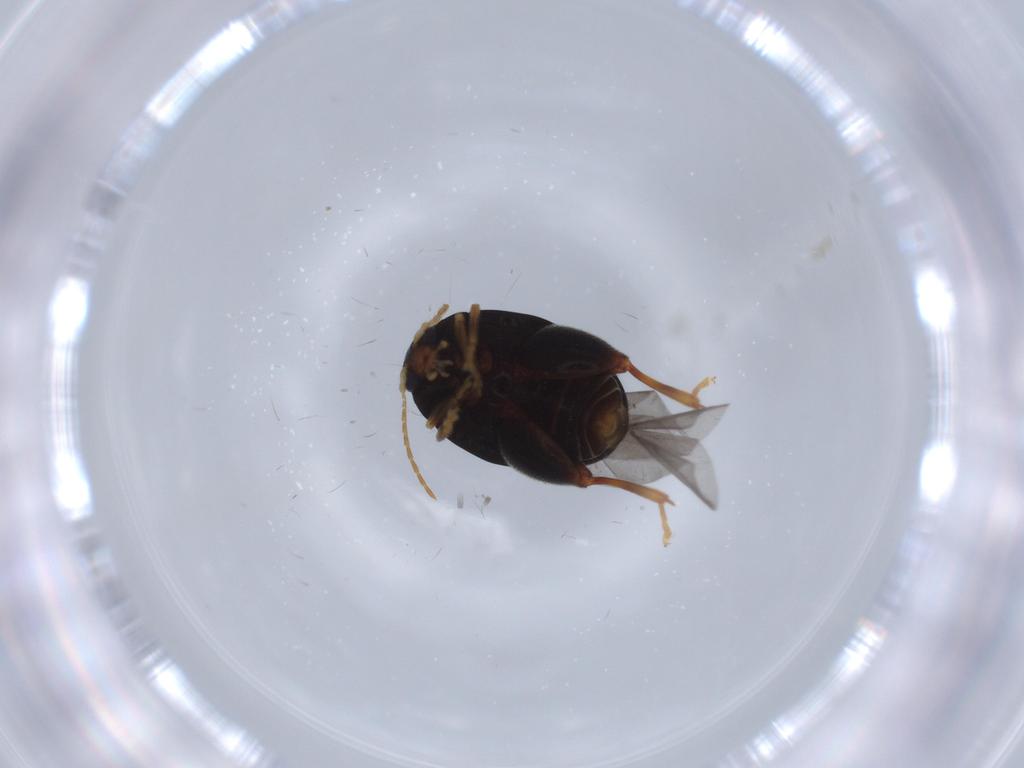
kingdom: Animalia
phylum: Arthropoda
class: Insecta
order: Coleoptera
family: Chrysomelidae
